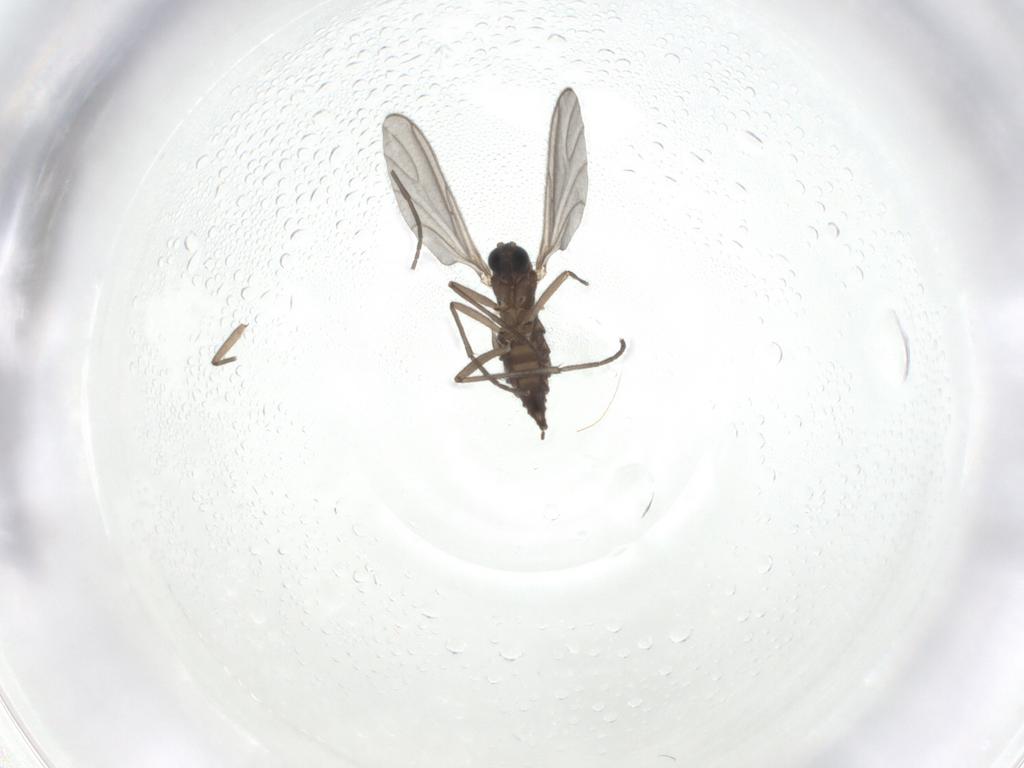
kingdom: Animalia
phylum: Arthropoda
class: Insecta
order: Diptera
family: Sciaridae
